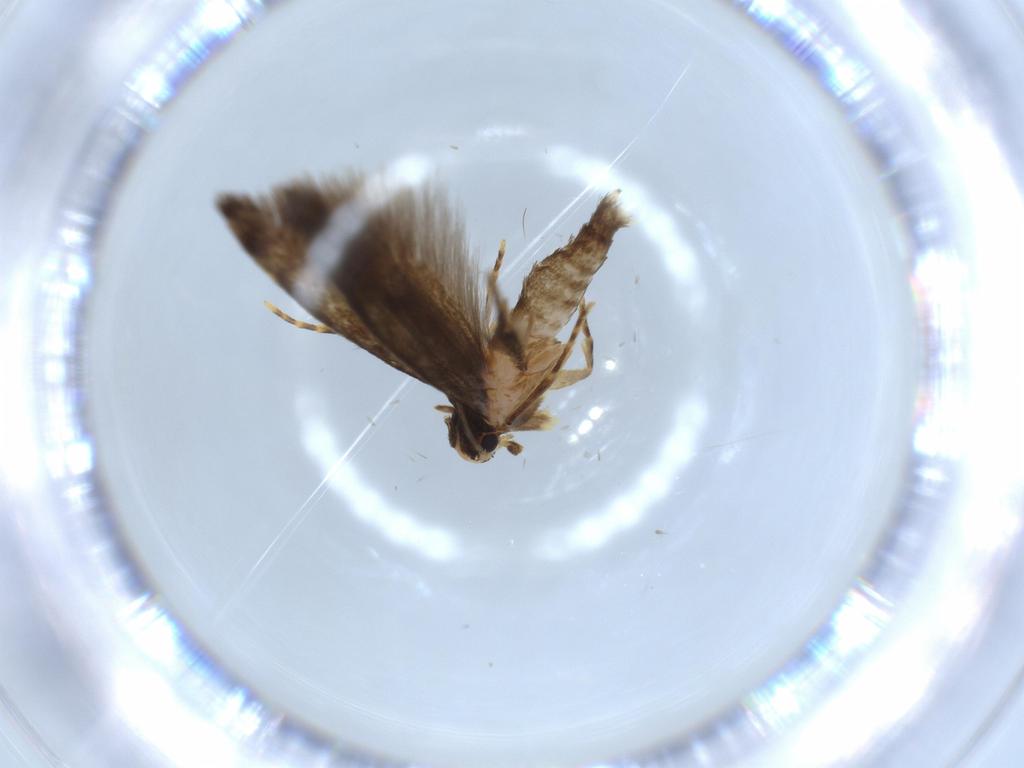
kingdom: Animalia
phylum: Arthropoda
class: Insecta
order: Lepidoptera
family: Tineidae
